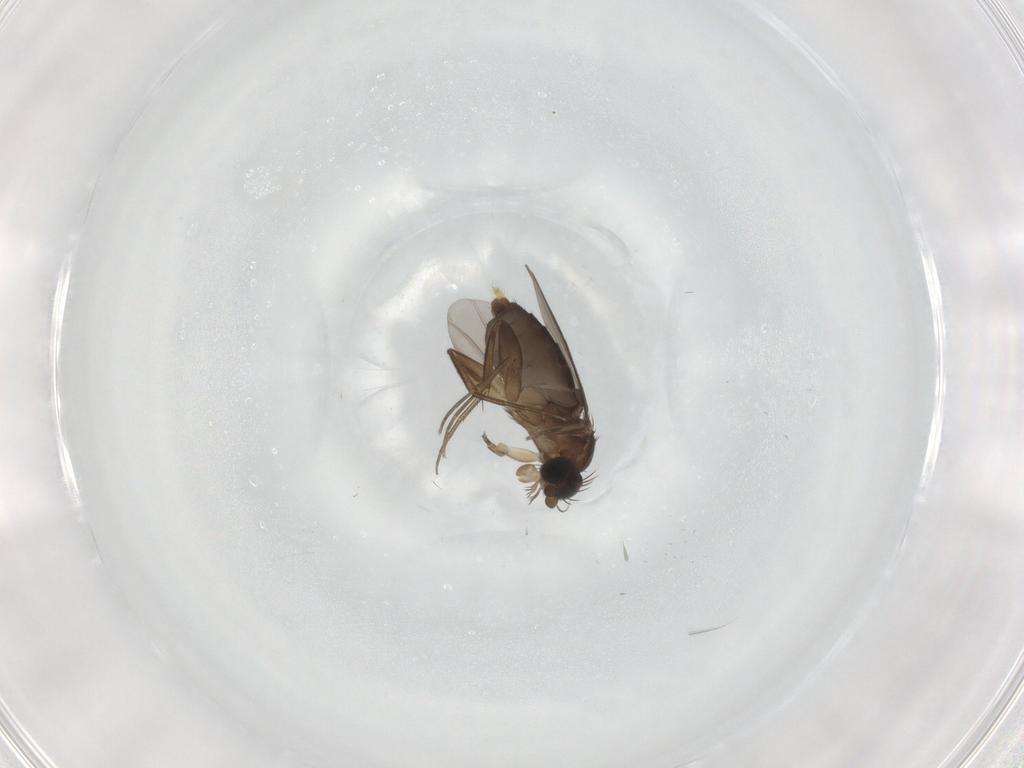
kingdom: Animalia
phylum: Arthropoda
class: Insecta
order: Diptera
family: Phoridae
